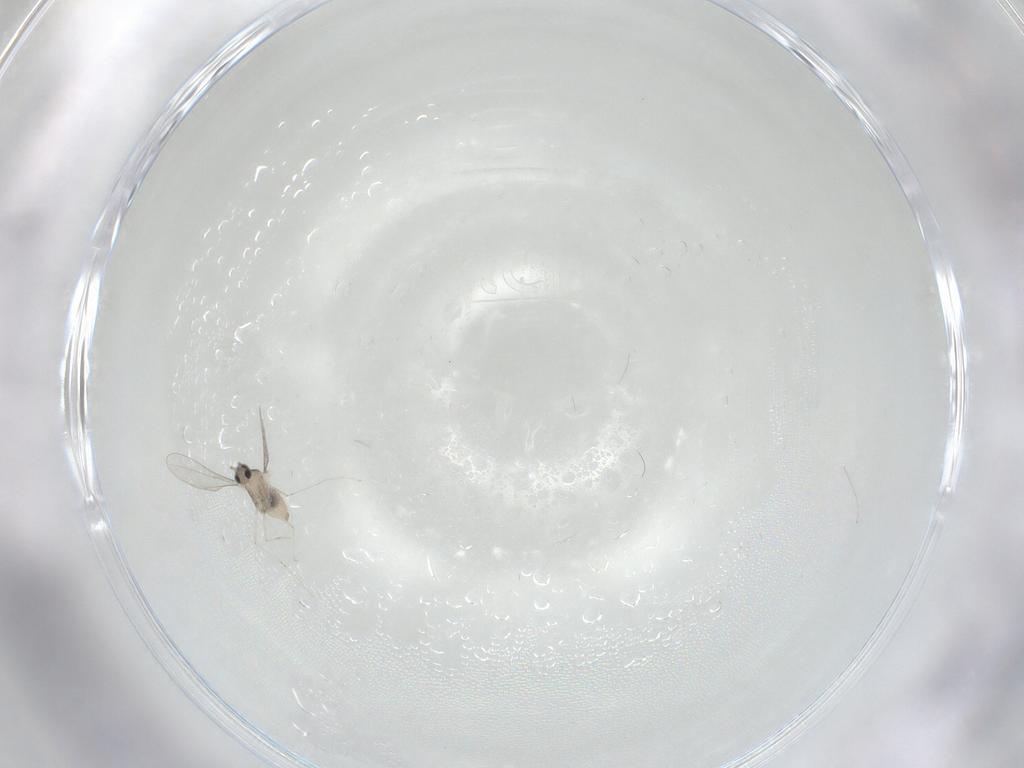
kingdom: Animalia
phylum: Arthropoda
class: Insecta
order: Diptera
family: Cecidomyiidae
